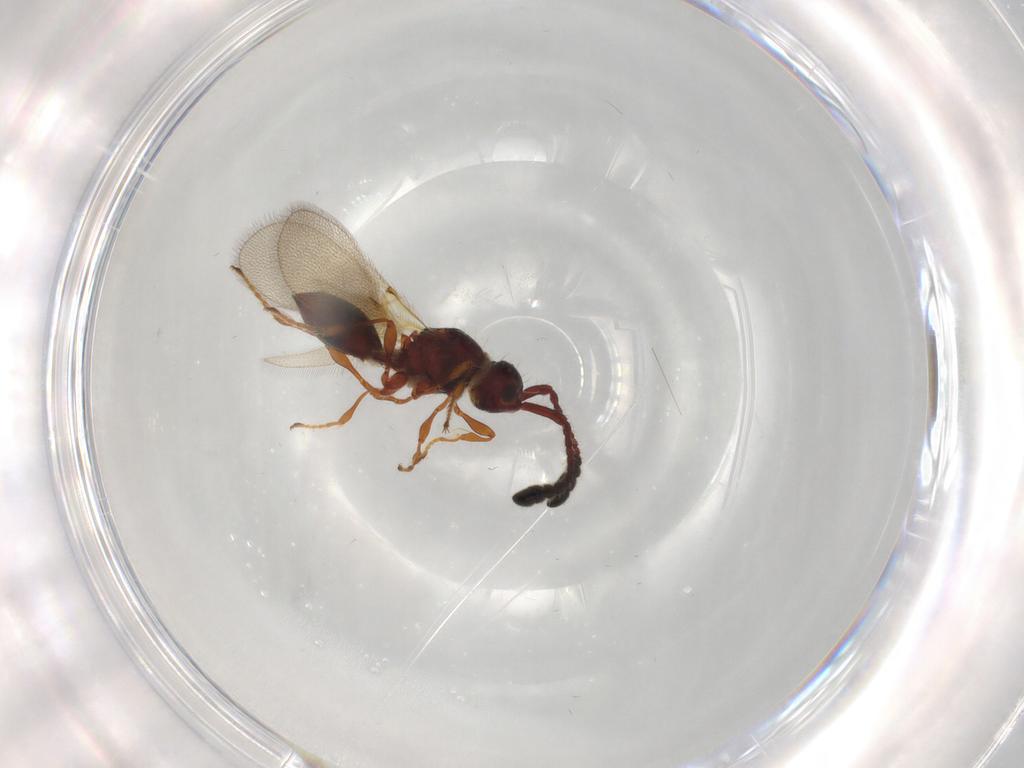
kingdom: Animalia
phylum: Arthropoda
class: Insecta
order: Hymenoptera
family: Diapriidae
